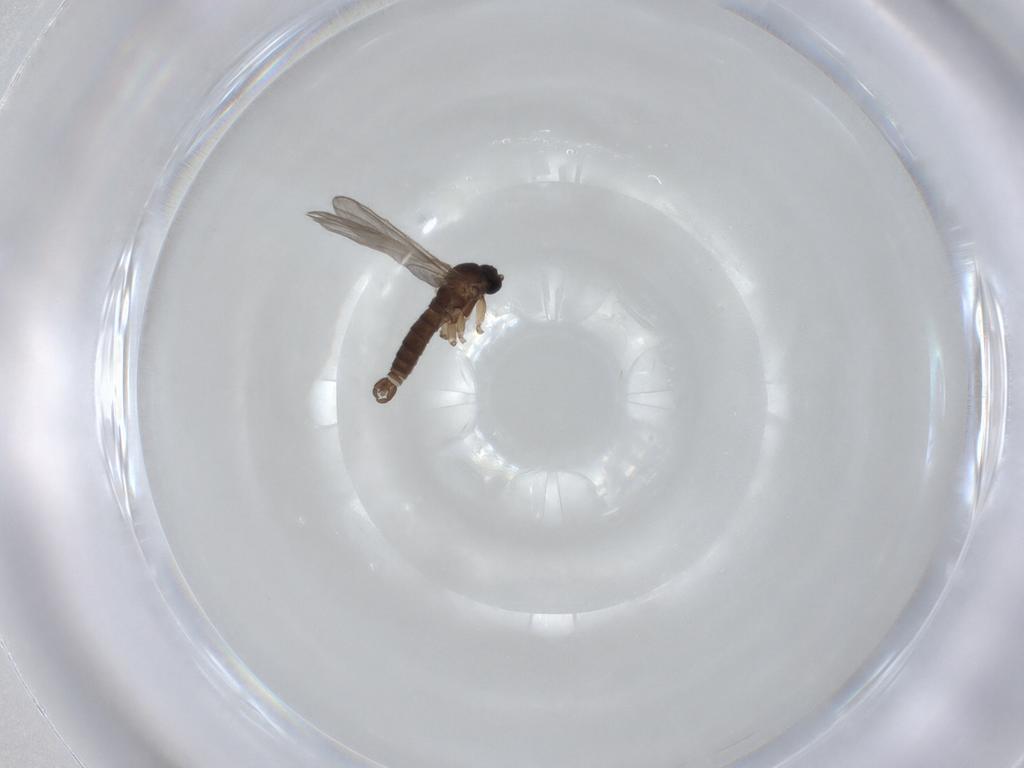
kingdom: Animalia
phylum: Arthropoda
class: Insecta
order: Diptera
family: Sciaridae
